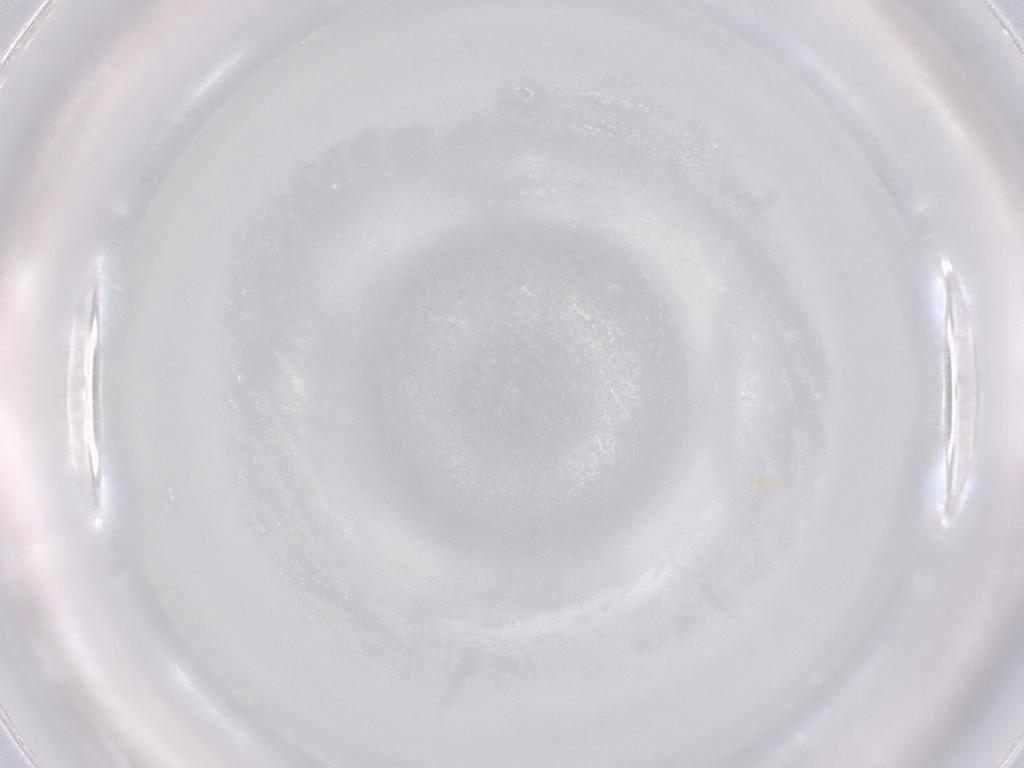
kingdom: Animalia
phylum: Arthropoda
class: Arachnida
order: Trombidiformes
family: Eupodidae
